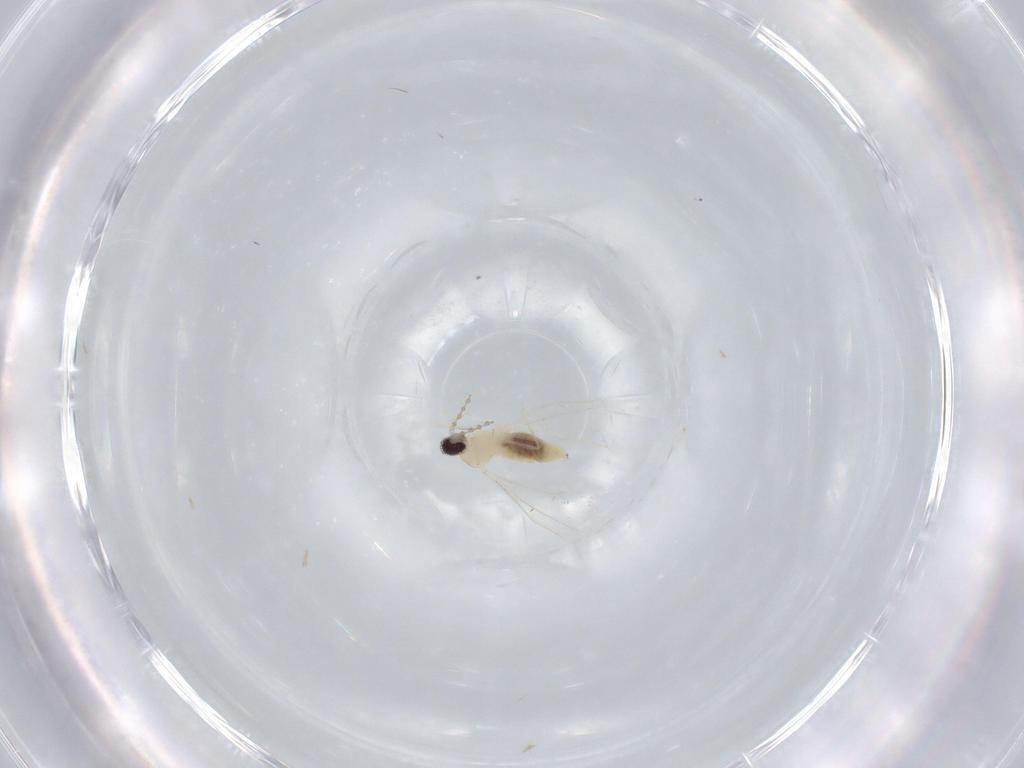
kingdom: Animalia
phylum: Arthropoda
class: Insecta
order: Diptera
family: Cecidomyiidae
